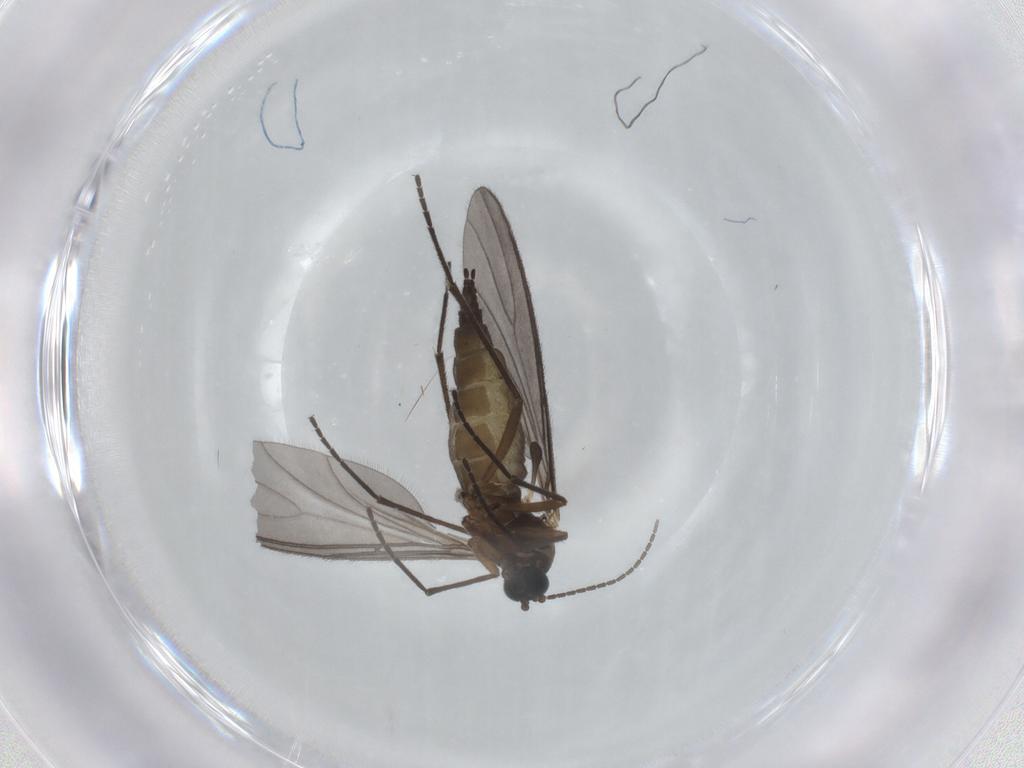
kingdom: Animalia
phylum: Arthropoda
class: Insecta
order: Diptera
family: Sciaridae
